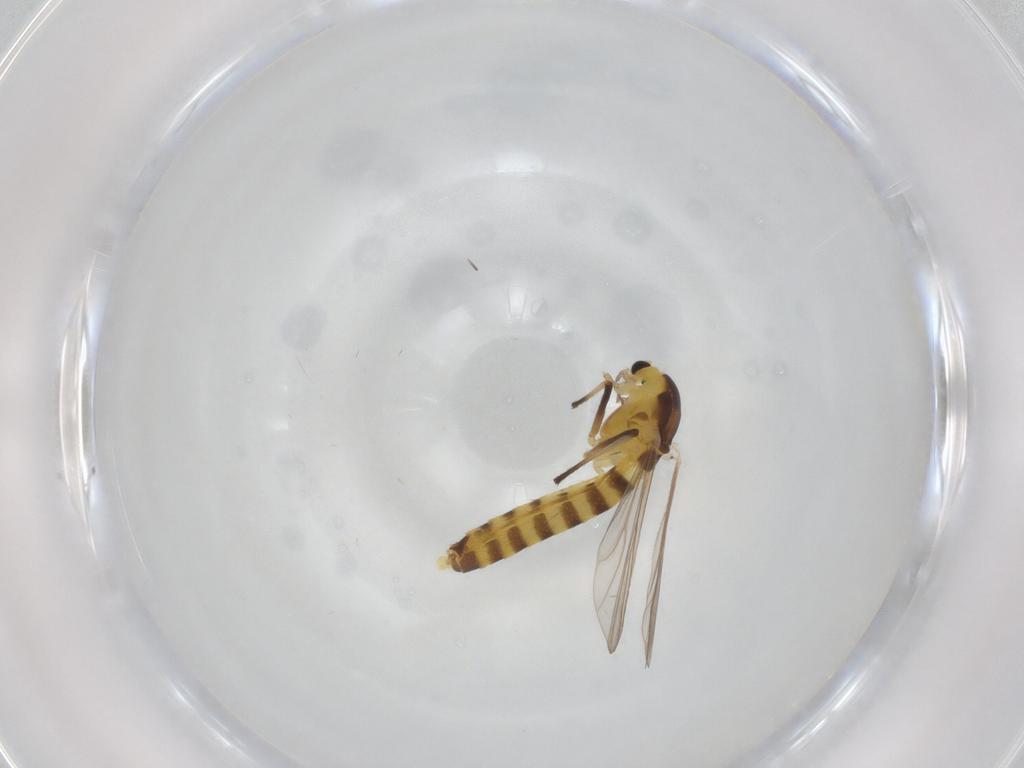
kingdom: Animalia
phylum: Arthropoda
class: Insecta
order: Diptera
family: Chironomidae
